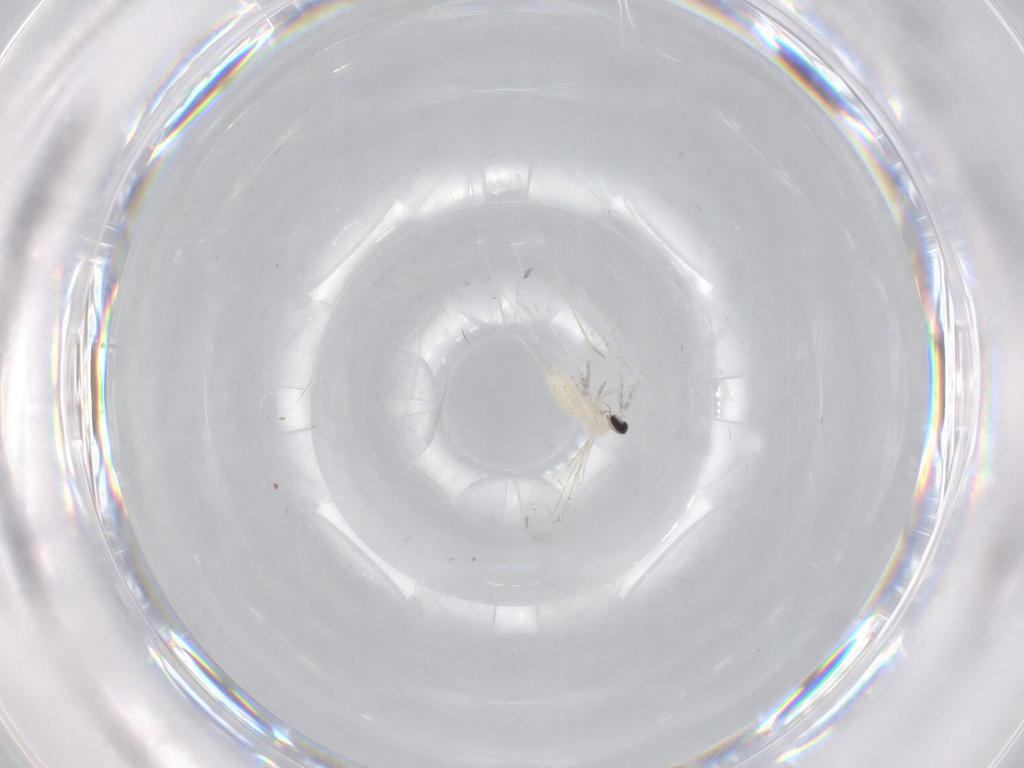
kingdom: Animalia
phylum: Arthropoda
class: Insecta
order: Diptera
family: Cecidomyiidae
